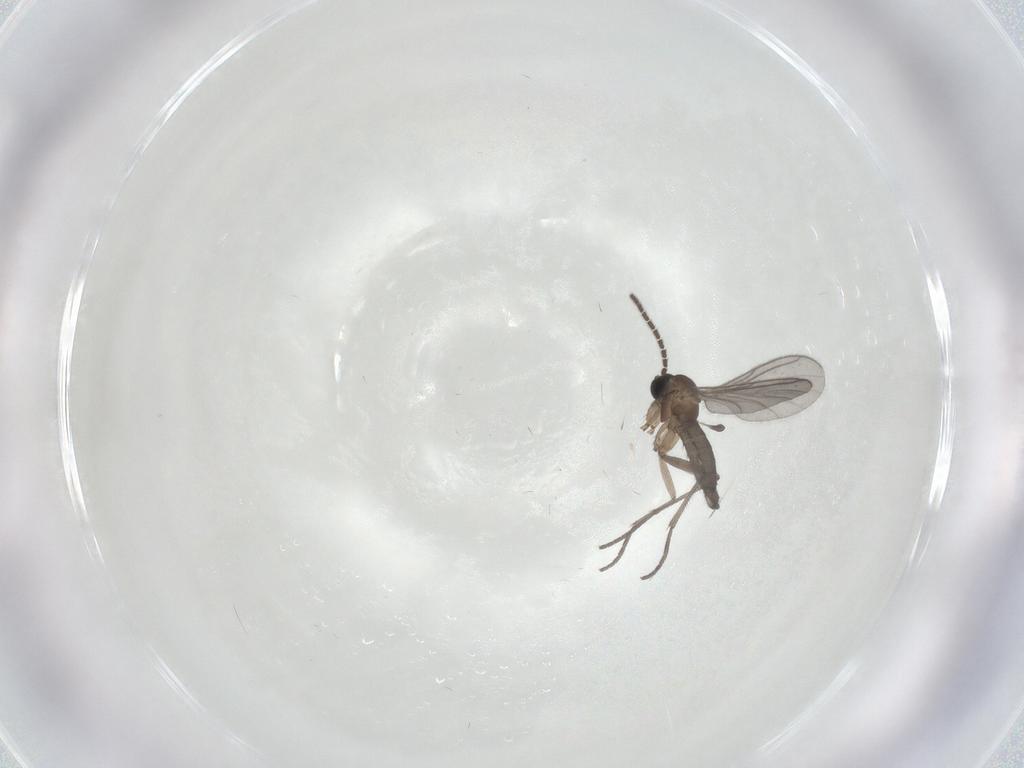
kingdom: Animalia
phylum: Arthropoda
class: Insecta
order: Diptera
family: Sciaridae
